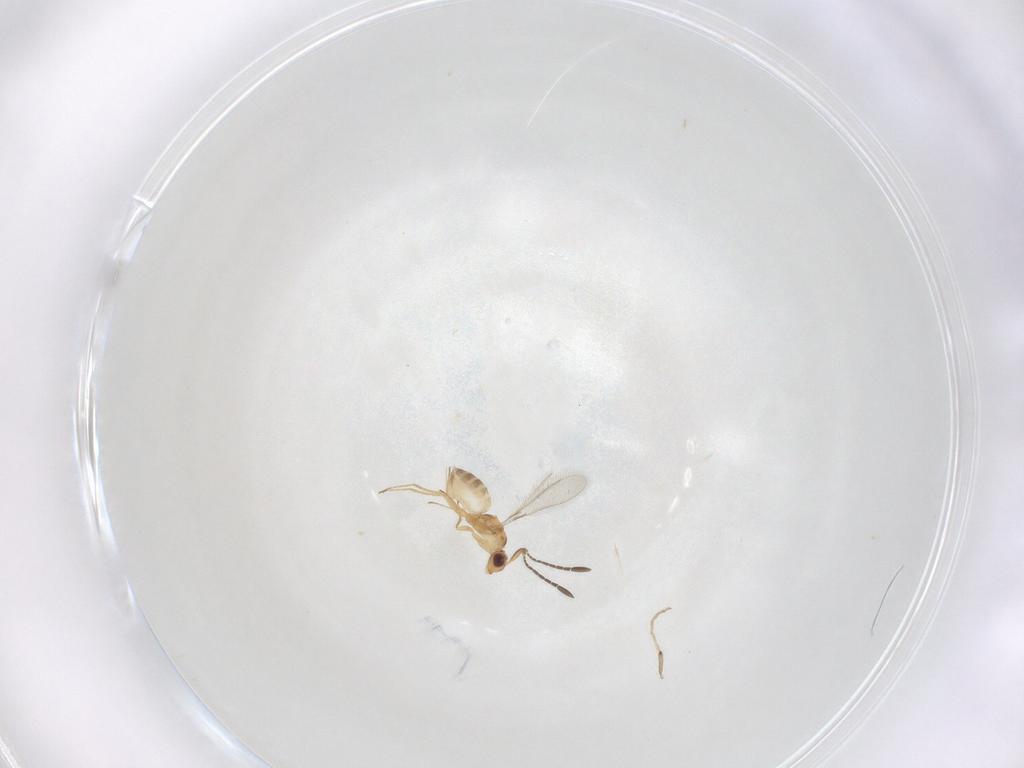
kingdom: Animalia
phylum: Arthropoda
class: Insecta
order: Hymenoptera
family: Mymaridae
